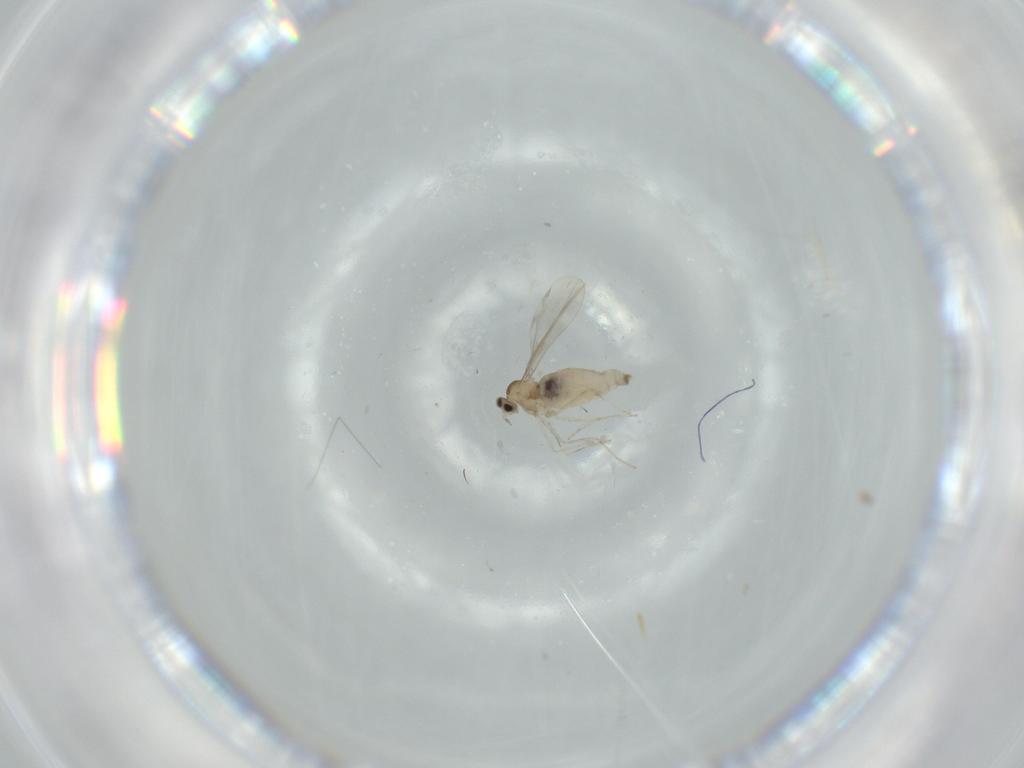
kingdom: Animalia
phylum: Arthropoda
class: Insecta
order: Diptera
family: Cecidomyiidae
